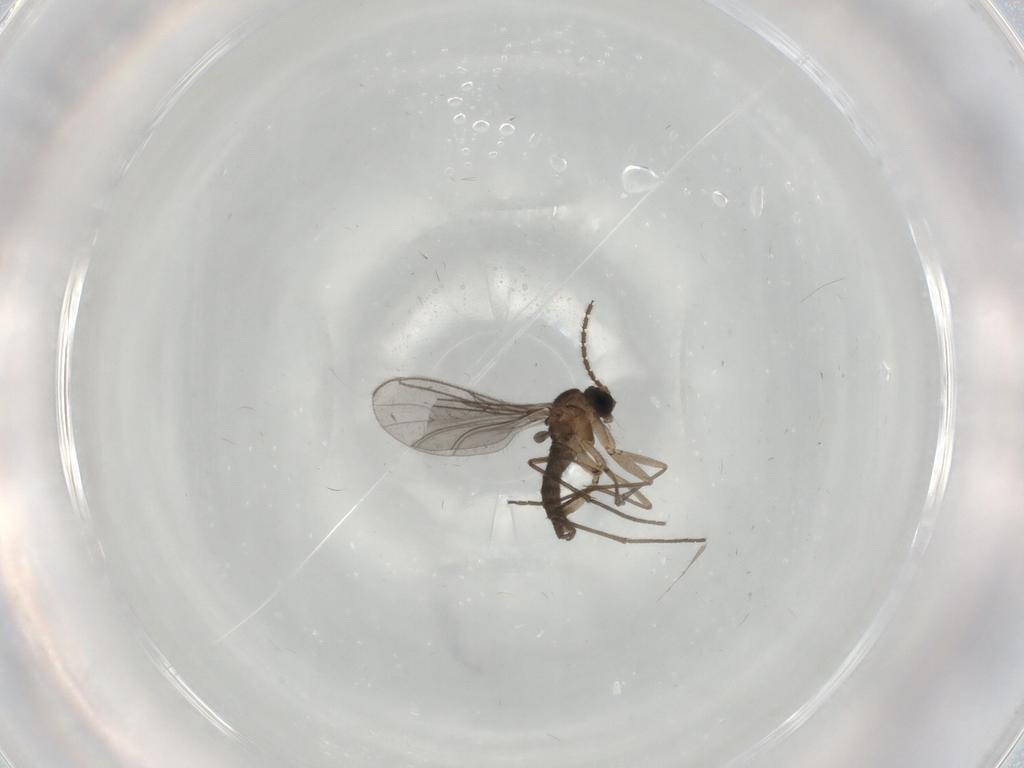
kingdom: Animalia
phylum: Arthropoda
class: Insecta
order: Diptera
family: Sciaridae
